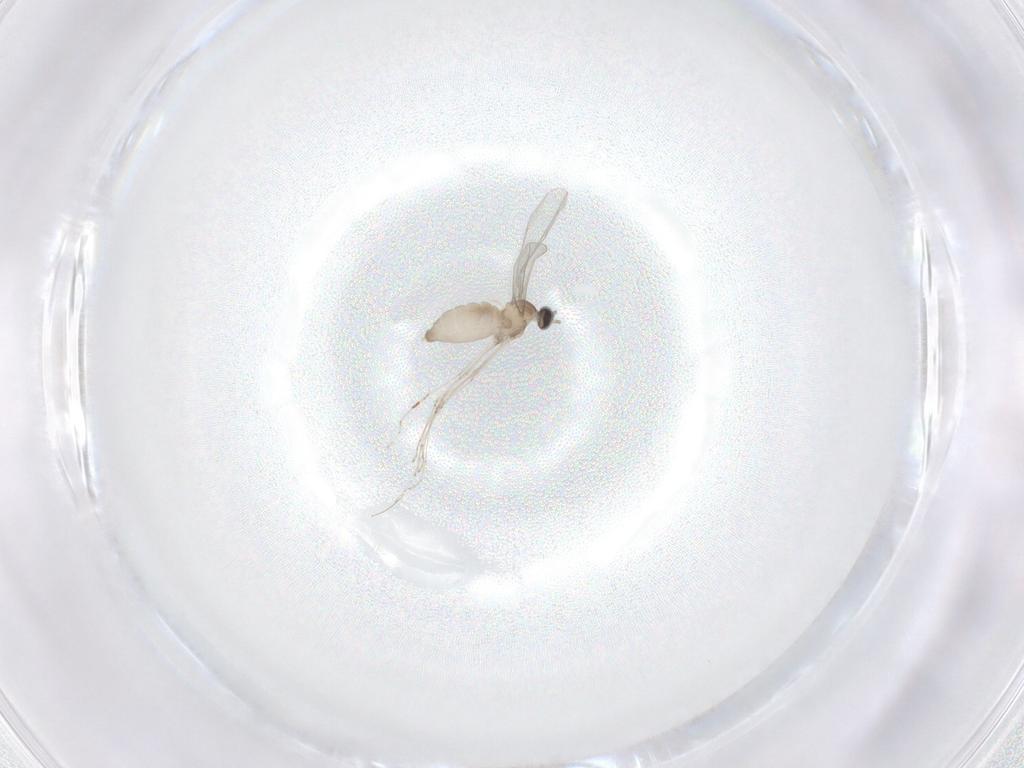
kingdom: Animalia
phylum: Arthropoda
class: Insecta
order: Diptera
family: Cecidomyiidae
